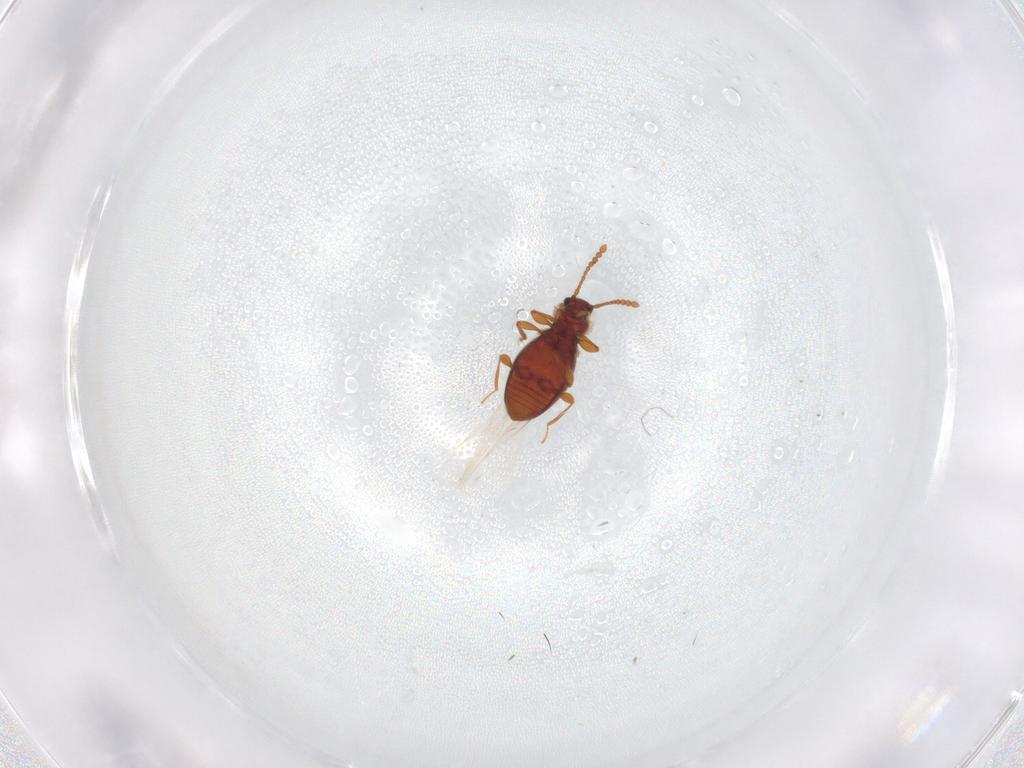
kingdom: Animalia
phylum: Arthropoda
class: Insecta
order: Coleoptera
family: Staphylinidae
